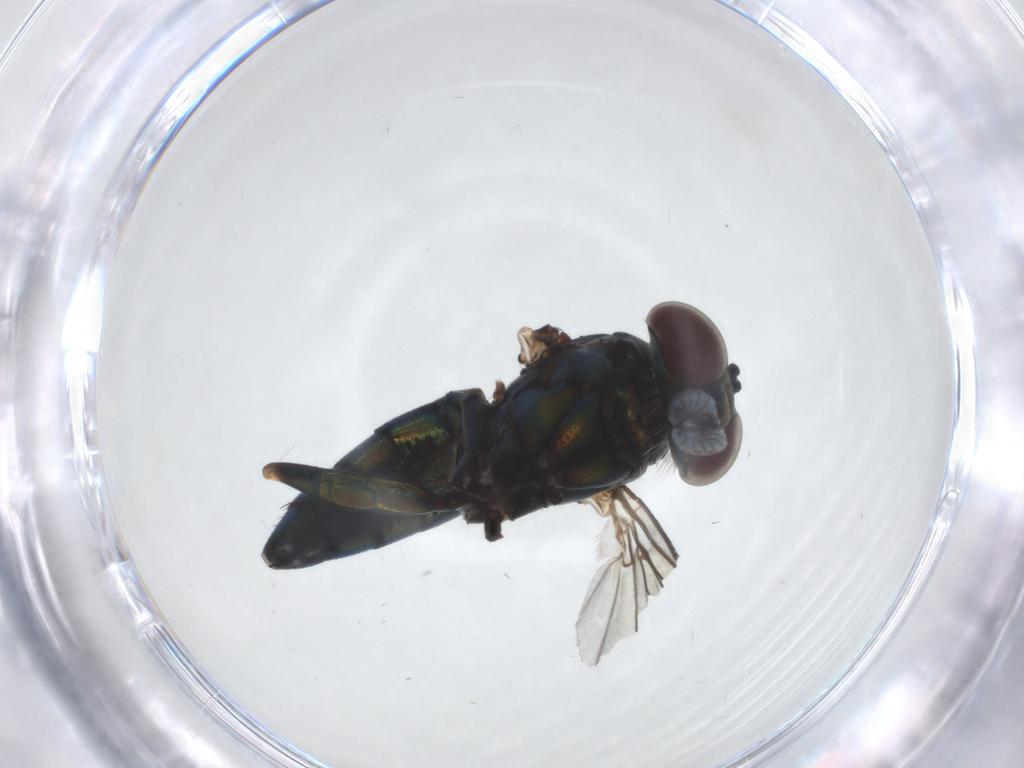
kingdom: Animalia
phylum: Arthropoda
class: Insecta
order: Diptera
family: Dolichopodidae
